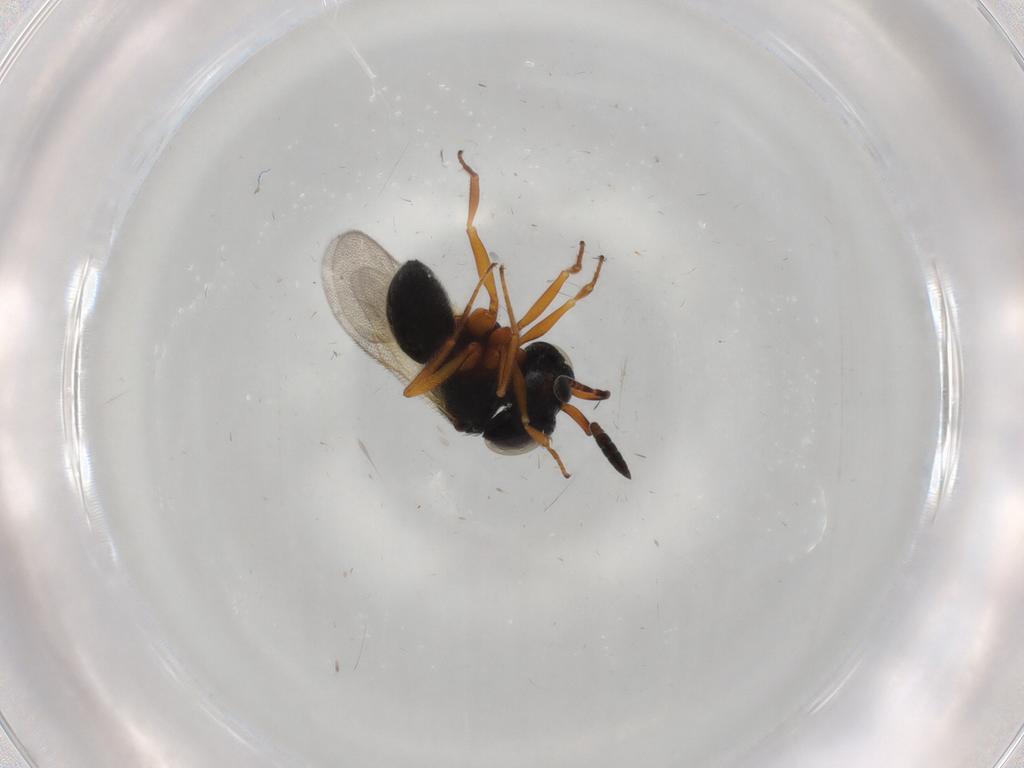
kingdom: Animalia
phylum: Arthropoda
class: Insecta
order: Hymenoptera
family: Scelionidae
